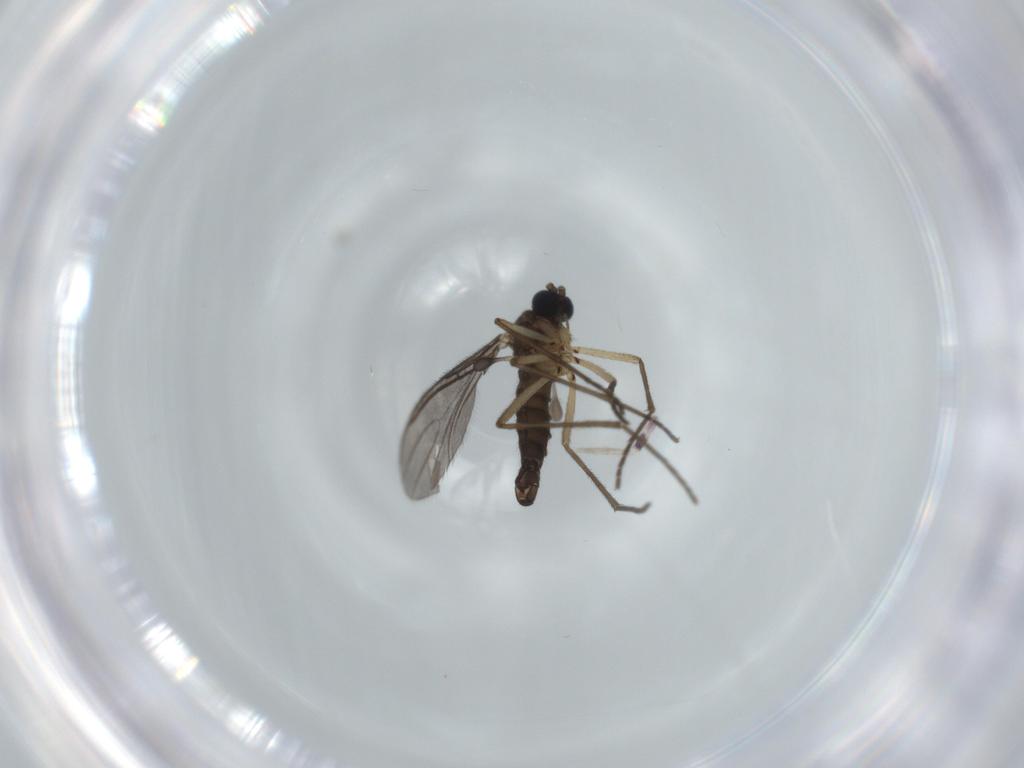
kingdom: Animalia
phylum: Arthropoda
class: Insecta
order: Diptera
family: Sciaridae
